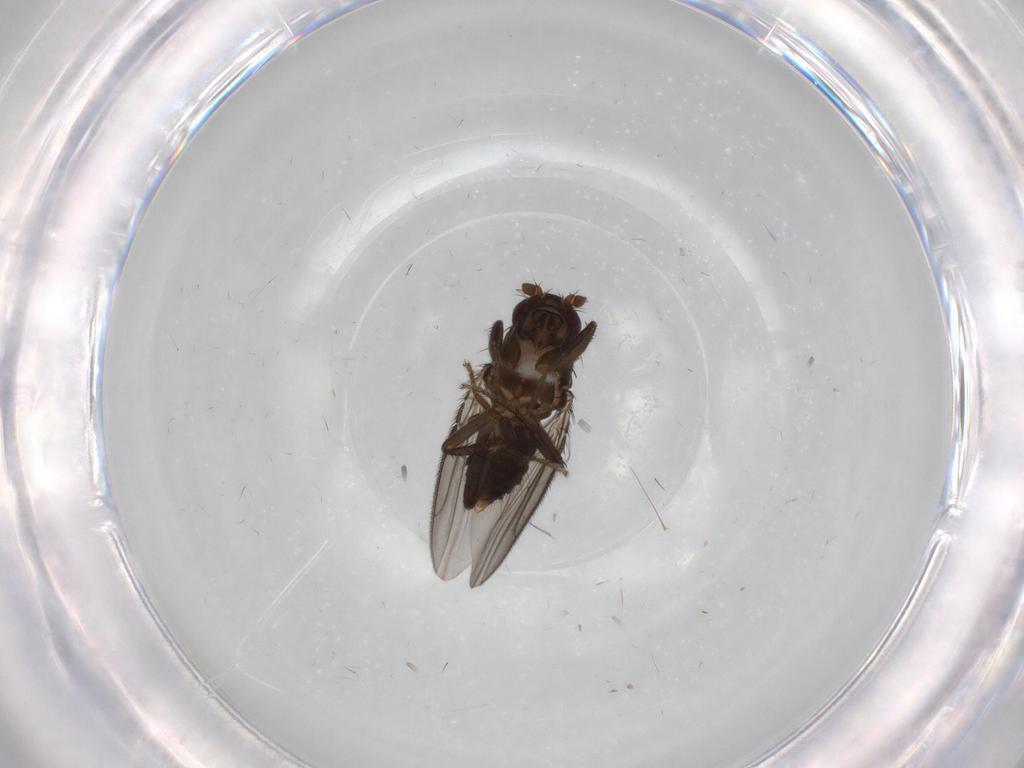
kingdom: Animalia
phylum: Arthropoda
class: Insecta
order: Diptera
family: Sphaeroceridae
